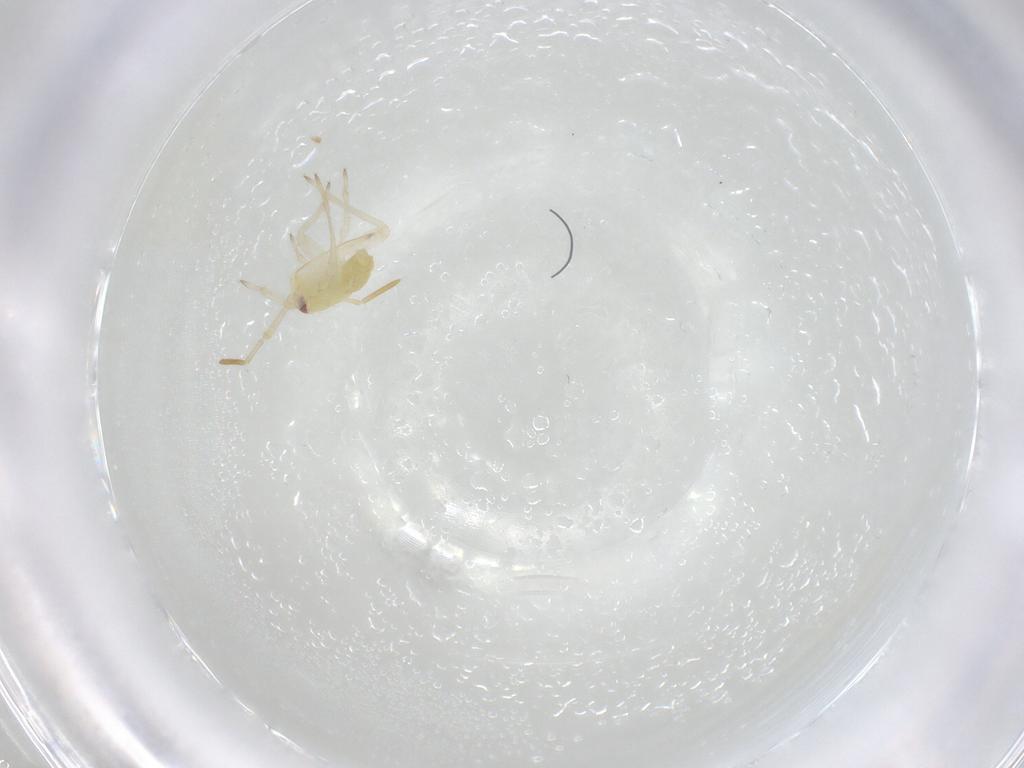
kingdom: Animalia
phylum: Arthropoda
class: Insecta
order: Hemiptera
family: Miridae
